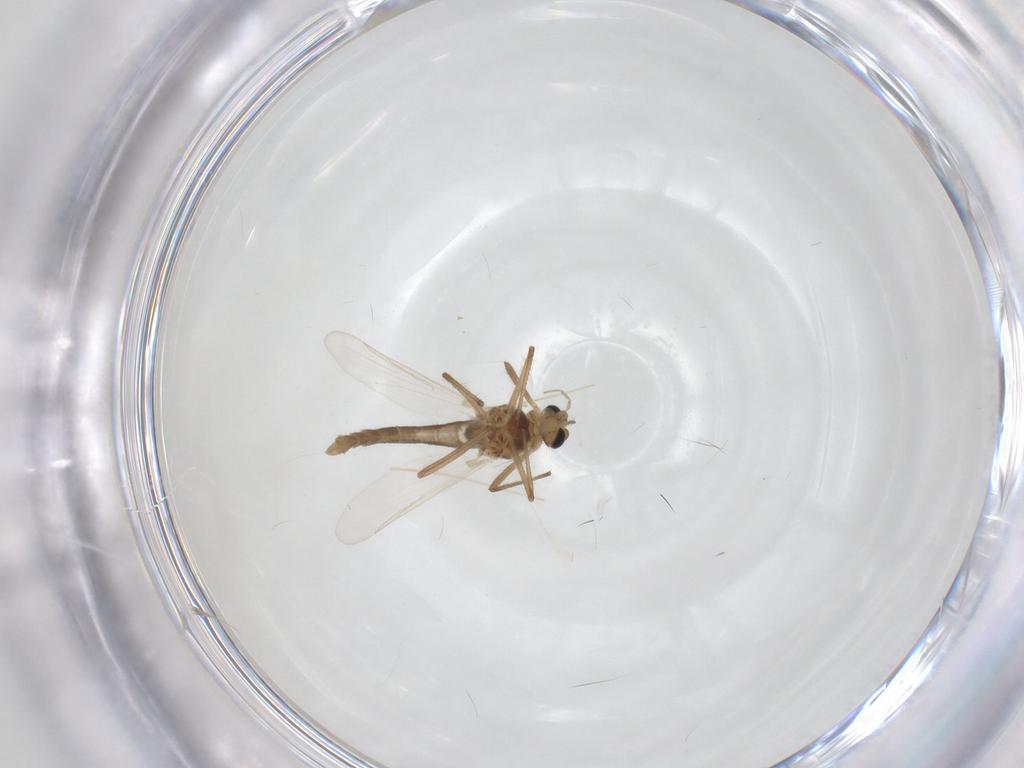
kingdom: Animalia
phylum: Arthropoda
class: Insecta
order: Diptera
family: Chironomidae
